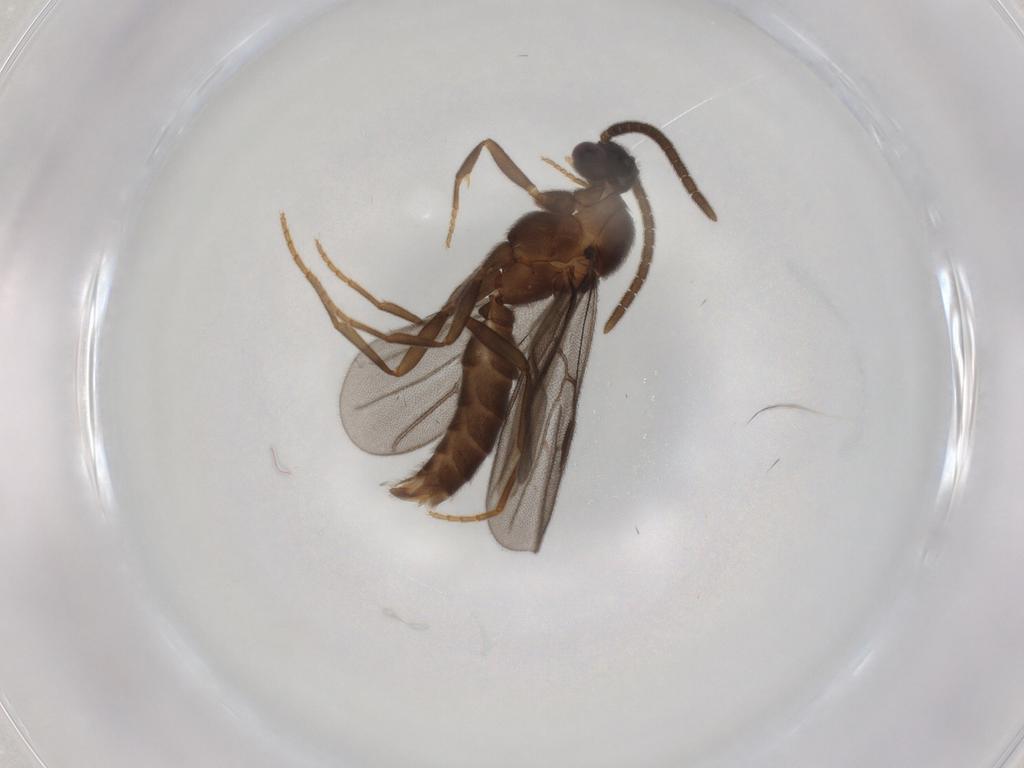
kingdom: Animalia
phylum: Arthropoda
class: Insecta
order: Hymenoptera
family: Formicidae
